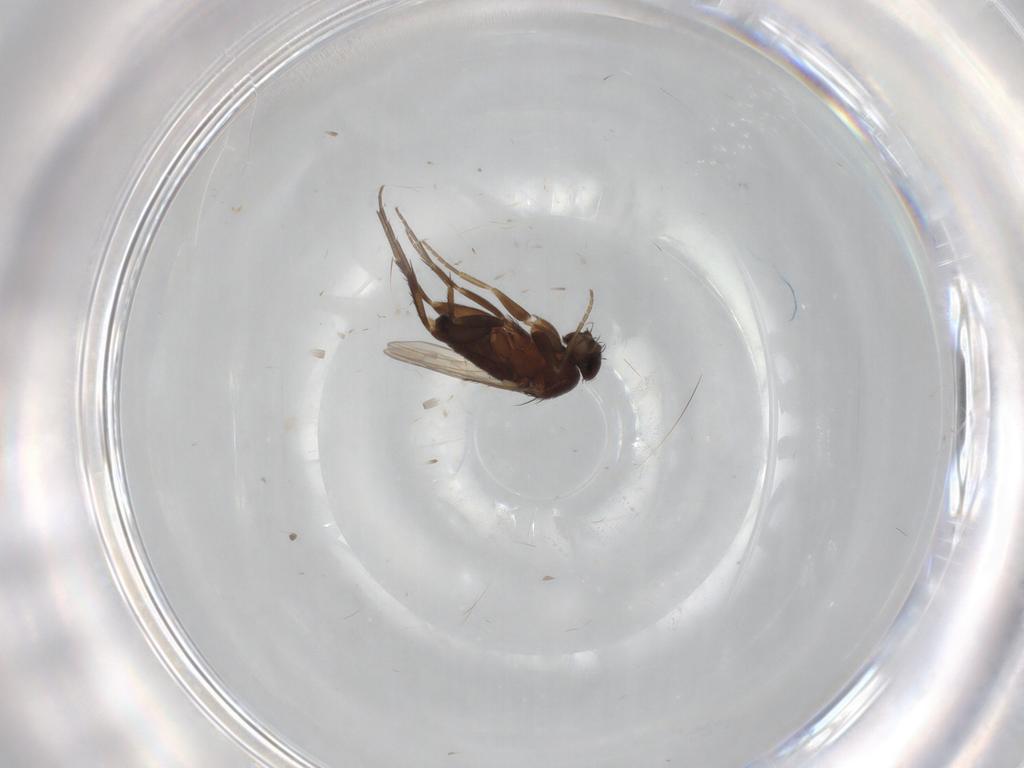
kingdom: Animalia
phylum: Arthropoda
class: Insecta
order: Diptera
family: Phoridae
